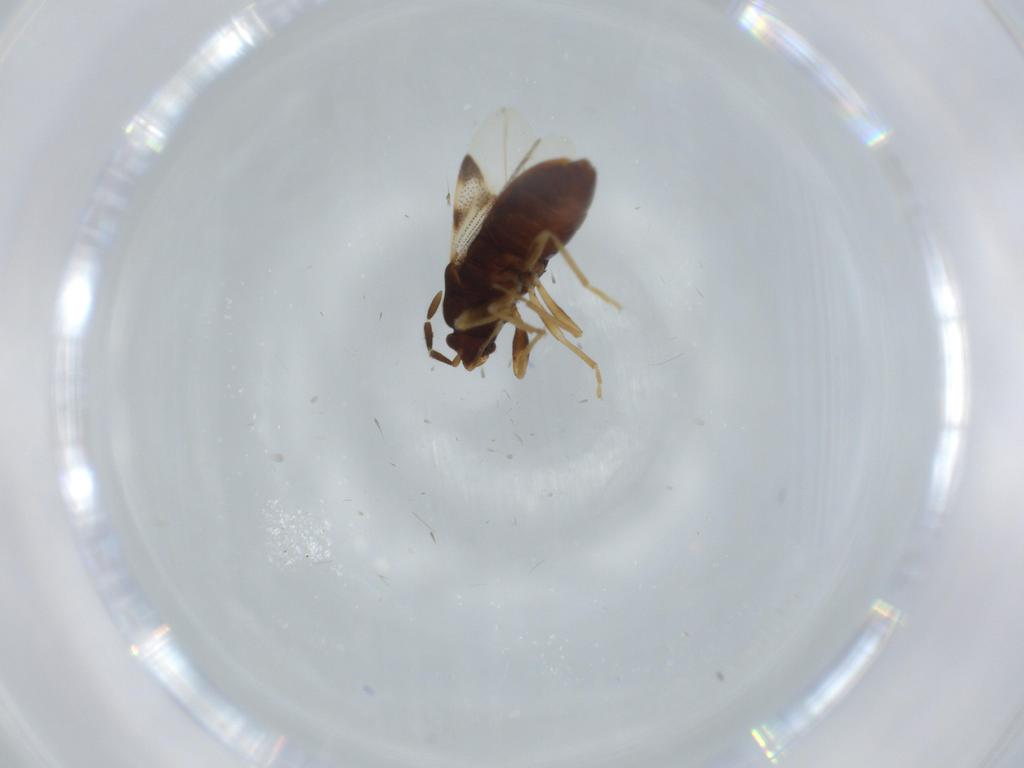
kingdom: Animalia
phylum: Arthropoda
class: Insecta
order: Hemiptera
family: Rhyparochromidae
